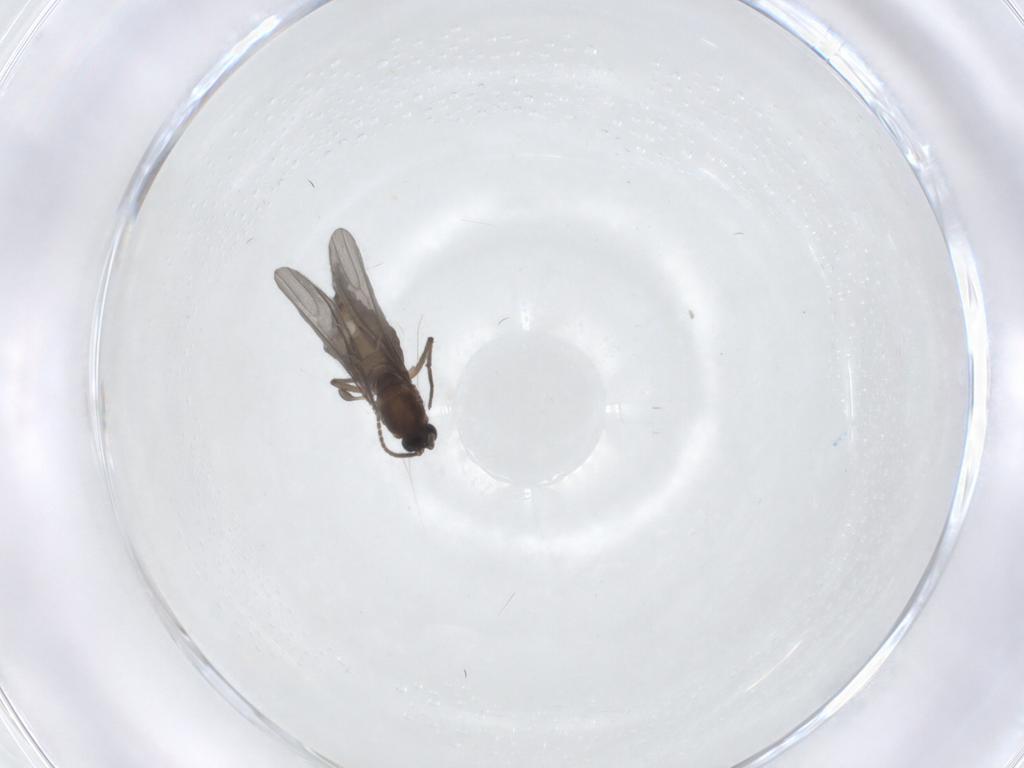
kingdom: Animalia
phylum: Arthropoda
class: Insecta
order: Diptera
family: Sciaridae
